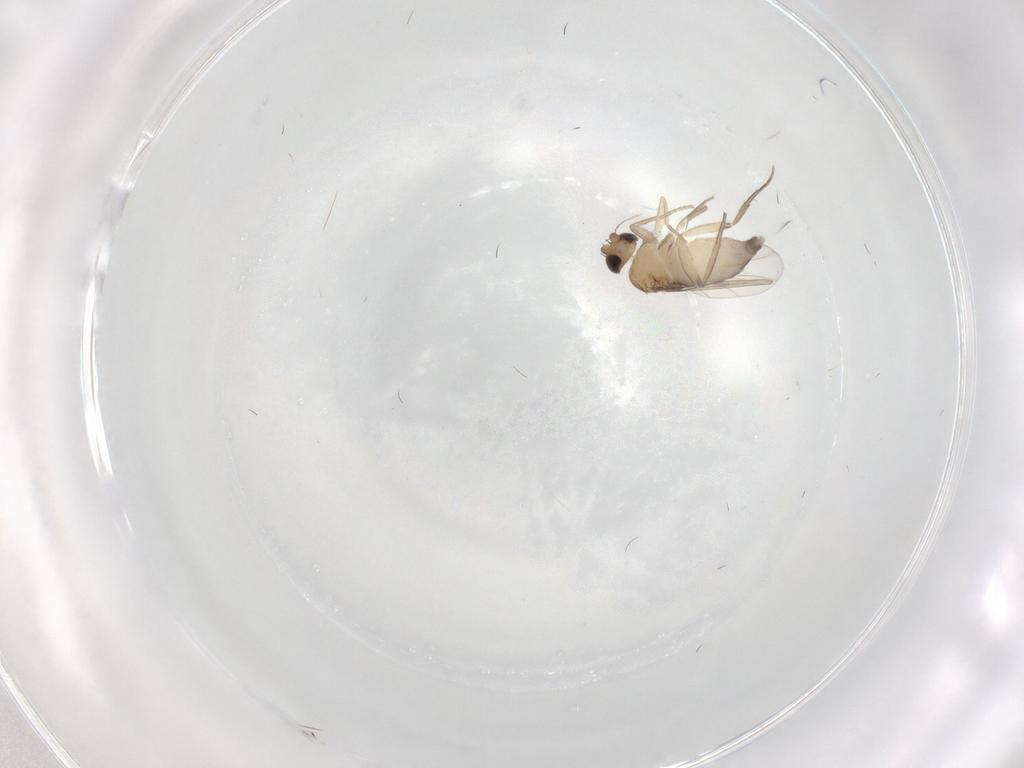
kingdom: Animalia
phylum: Arthropoda
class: Insecta
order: Diptera
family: Phoridae
